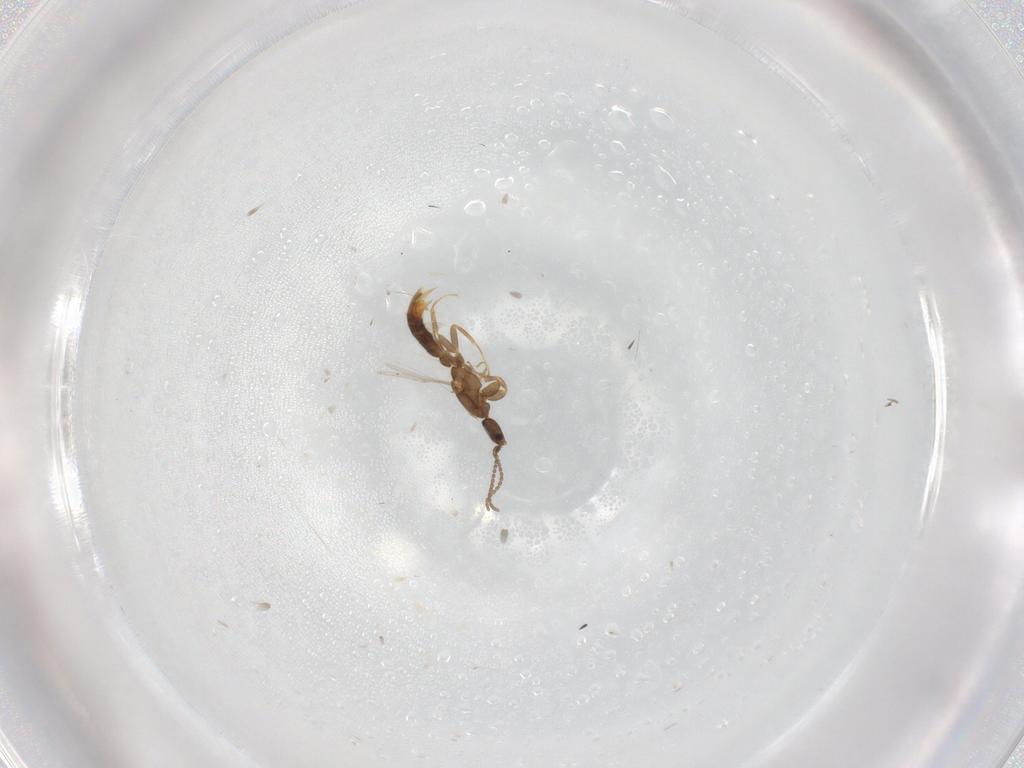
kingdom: Animalia
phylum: Arthropoda
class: Insecta
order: Hymenoptera
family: Formicidae
